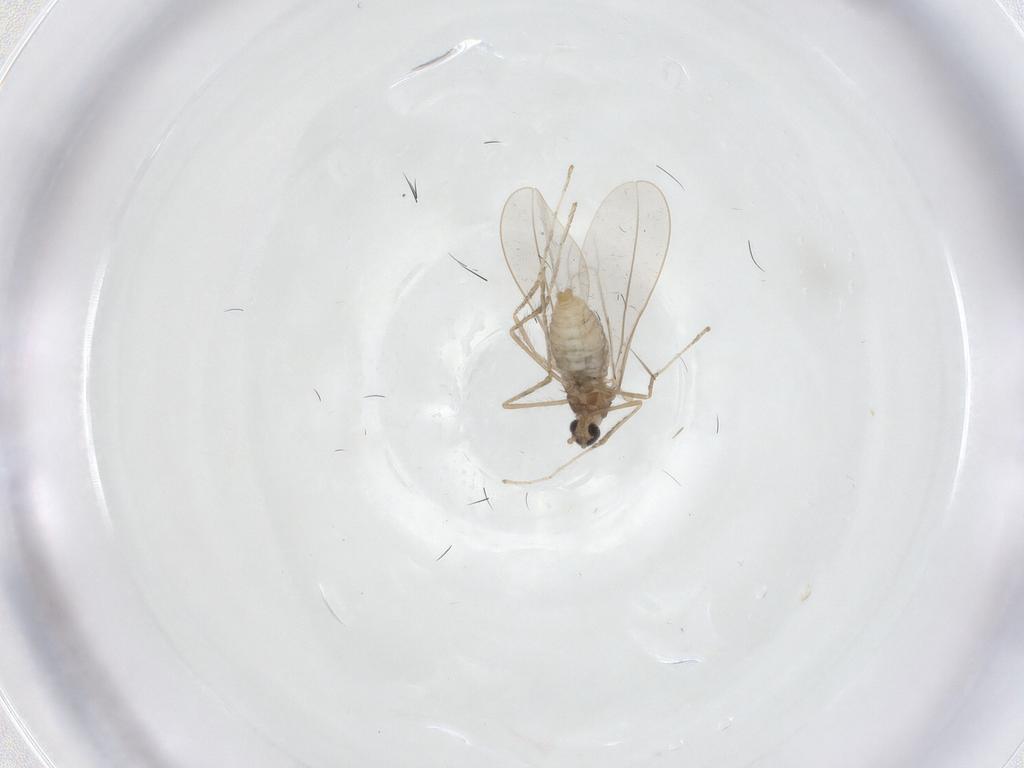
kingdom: Animalia
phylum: Arthropoda
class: Insecta
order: Diptera
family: Cecidomyiidae
